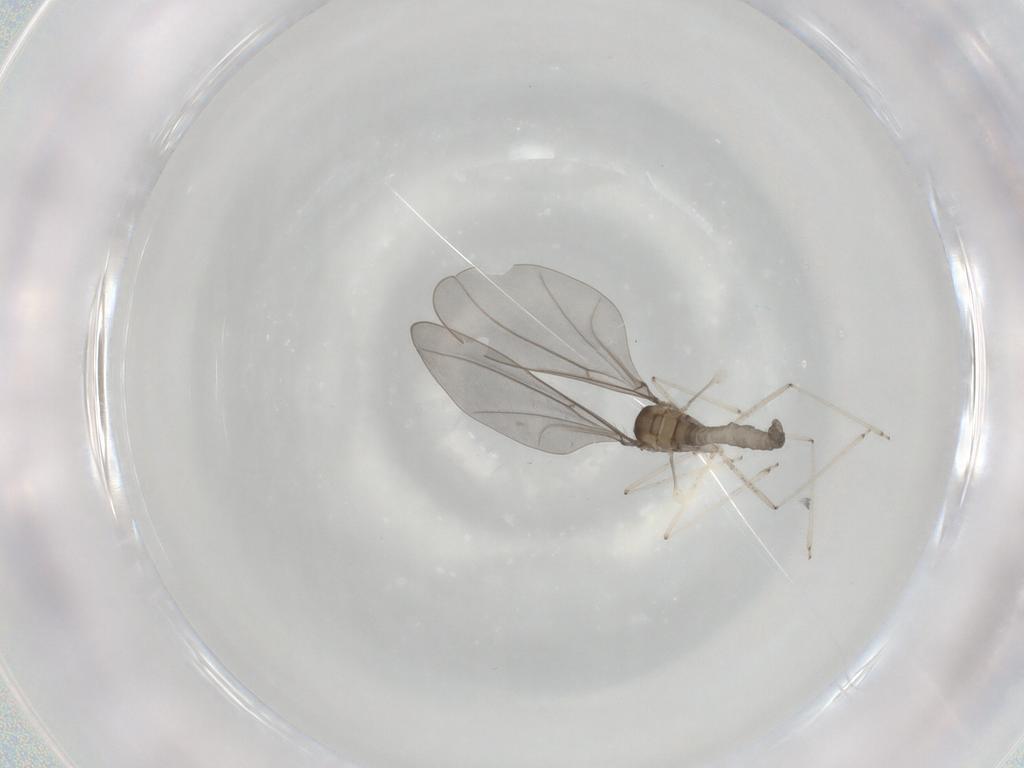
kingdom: Animalia
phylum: Arthropoda
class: Insecta
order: Diptera
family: Cecidomyiidae
